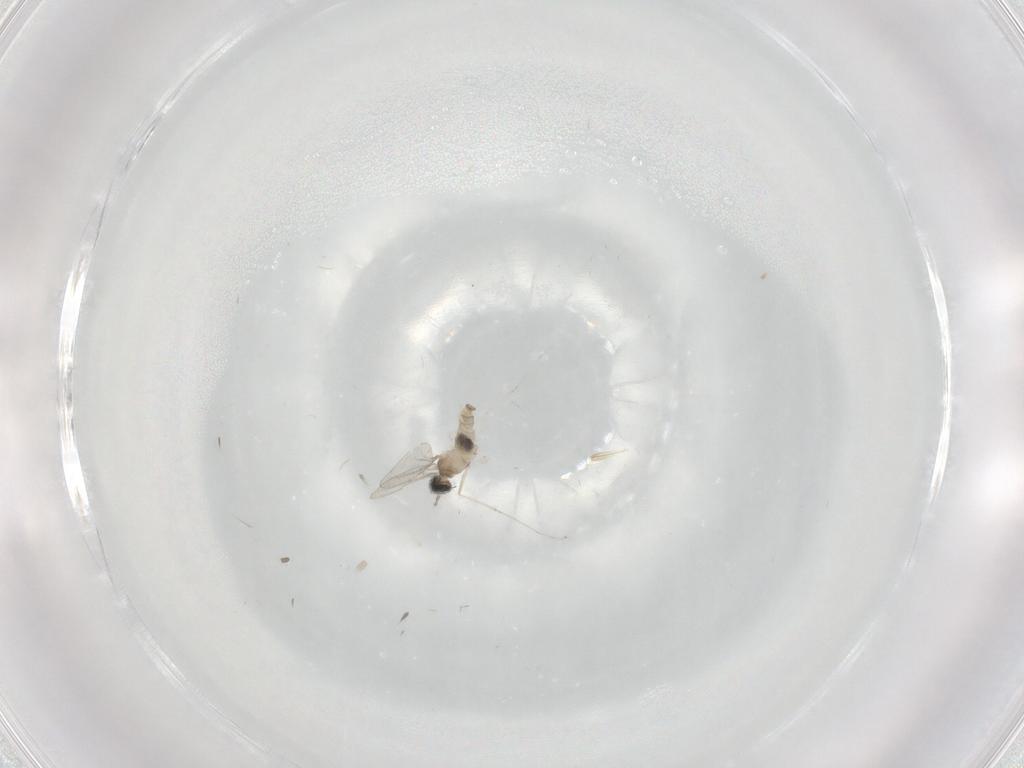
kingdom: Animalia
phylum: Arthropoda
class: Insecta
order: Diptera
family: Cecidomyiidae
